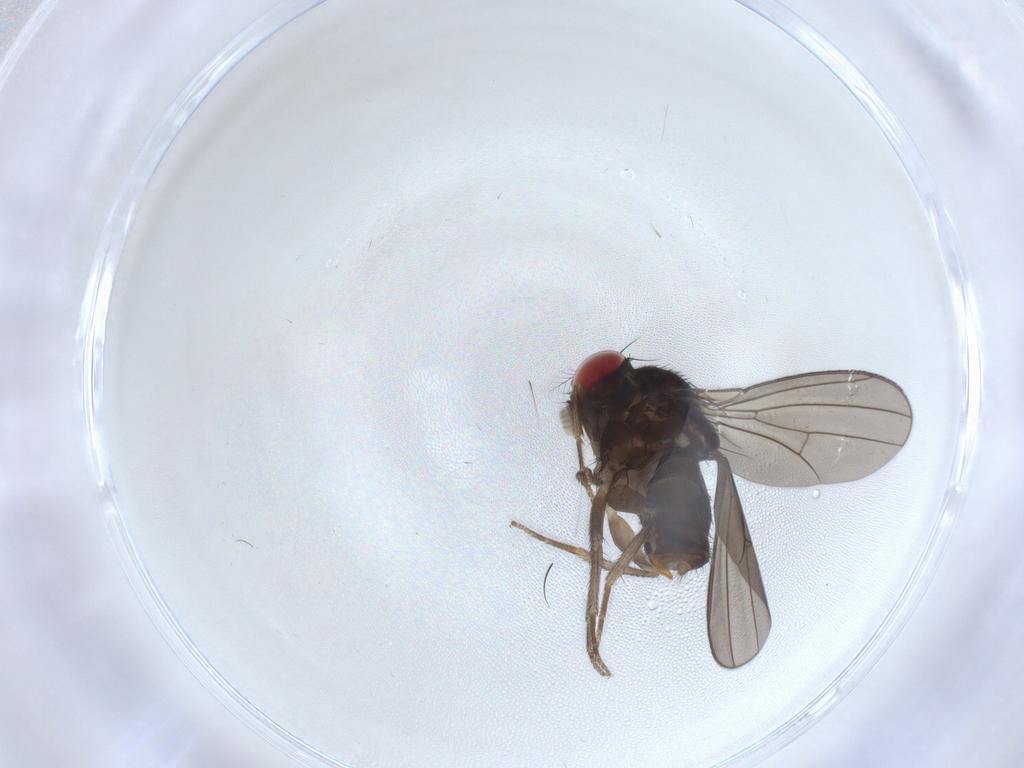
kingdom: Animalia
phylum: Arthropoda
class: Insecta
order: Diptera
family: Drosophilidae
